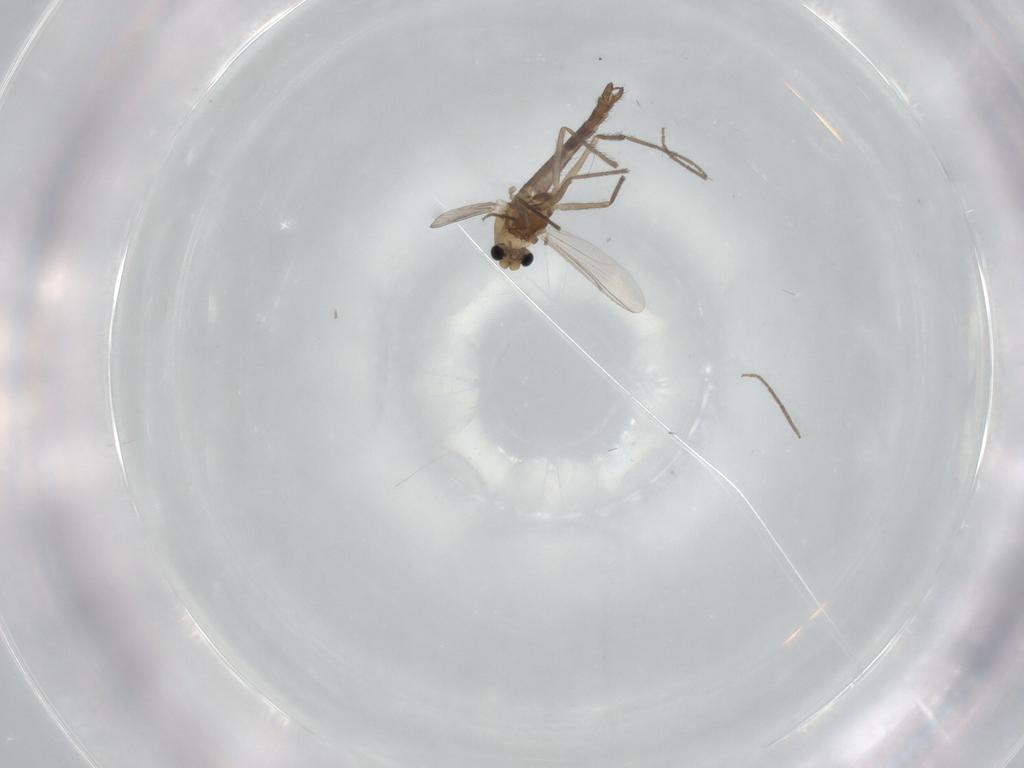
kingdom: Animalia
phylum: Arthropoda
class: Insecta
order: Diptera
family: Chironomidae
